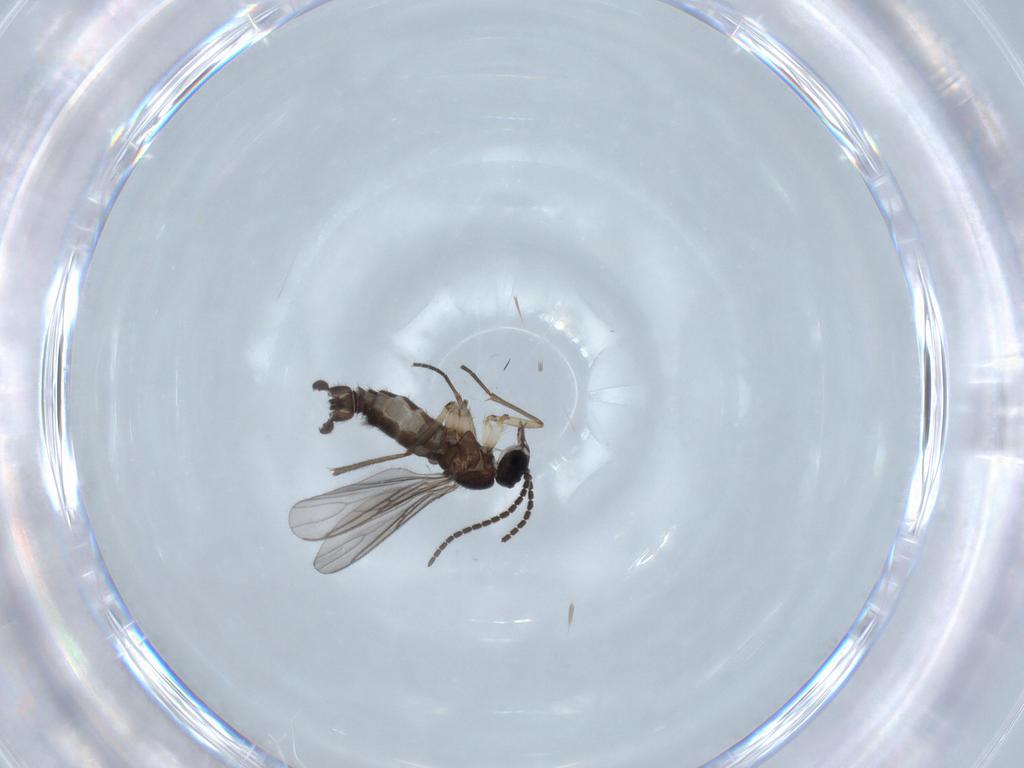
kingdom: Animalia
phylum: Arthropoda
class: Insecta
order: Diptera
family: Sciaridae
